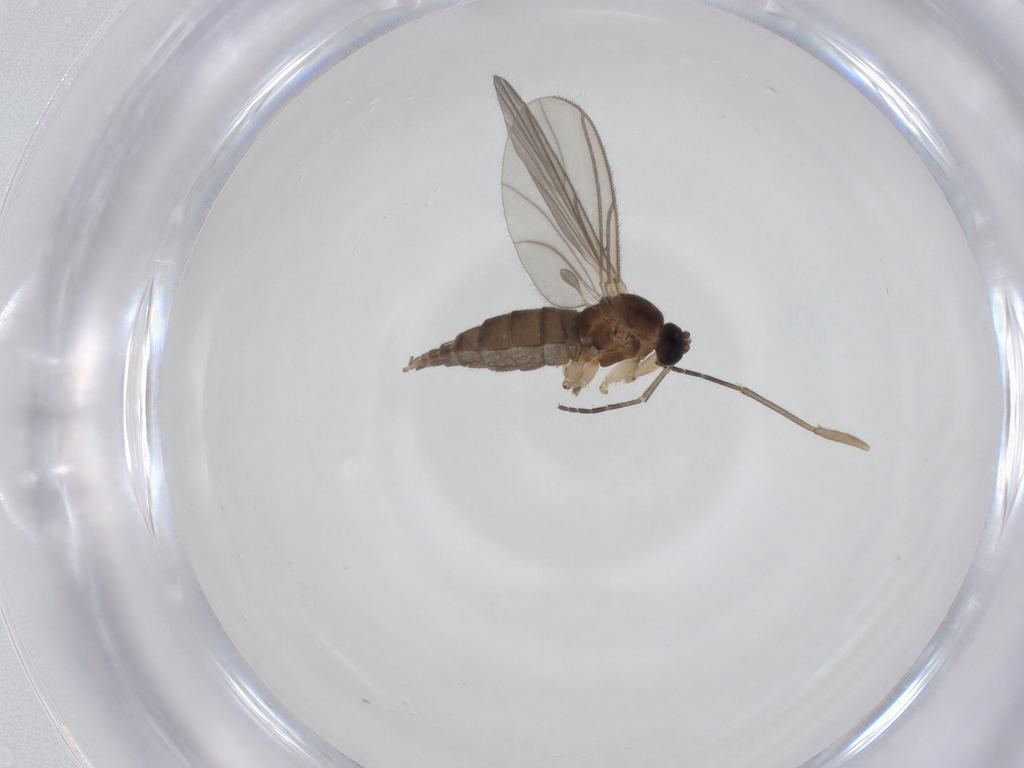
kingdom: Animalia
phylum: Arthropoda
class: Insecta
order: Diptera
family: Sciaridae
